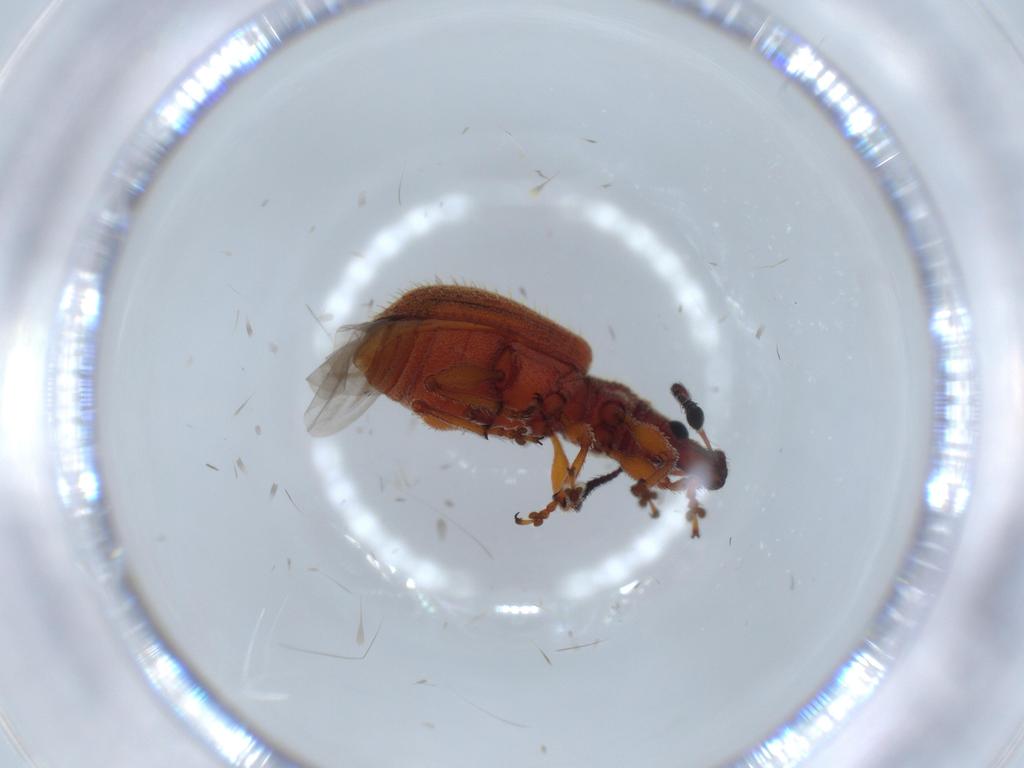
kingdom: Animalia
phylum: Arthropoda
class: Insecta
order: Coleoptera
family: Curculionidae
